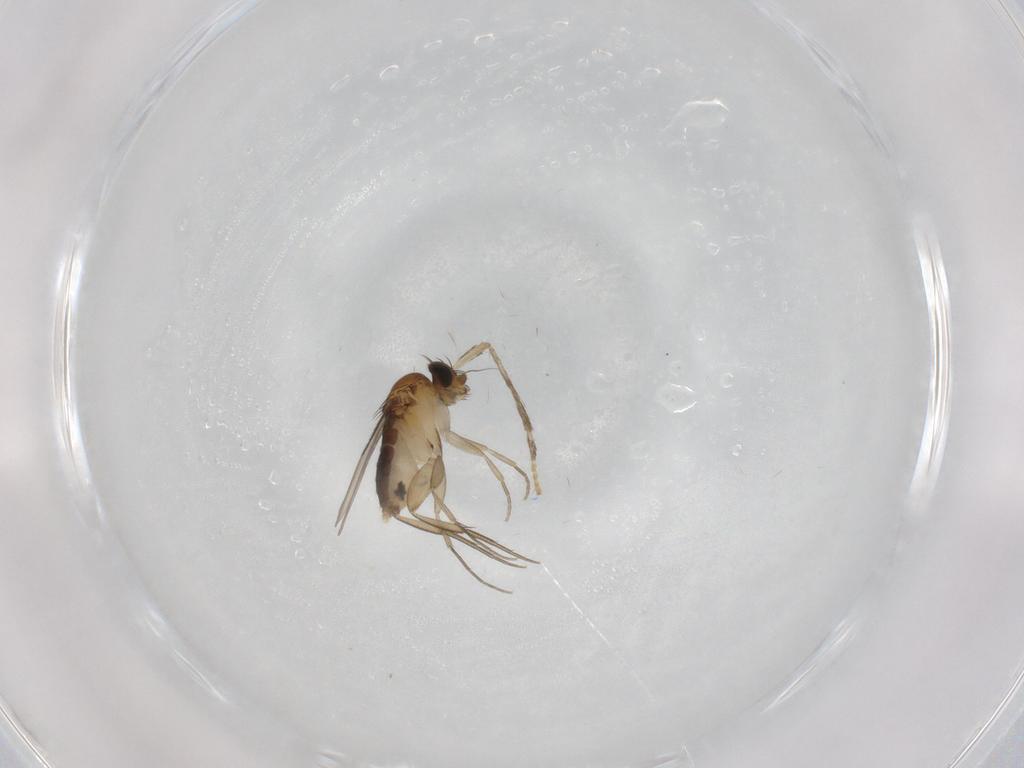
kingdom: Animalia
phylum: Arthropoda
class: Insecta
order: Diptera
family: Phoridae
